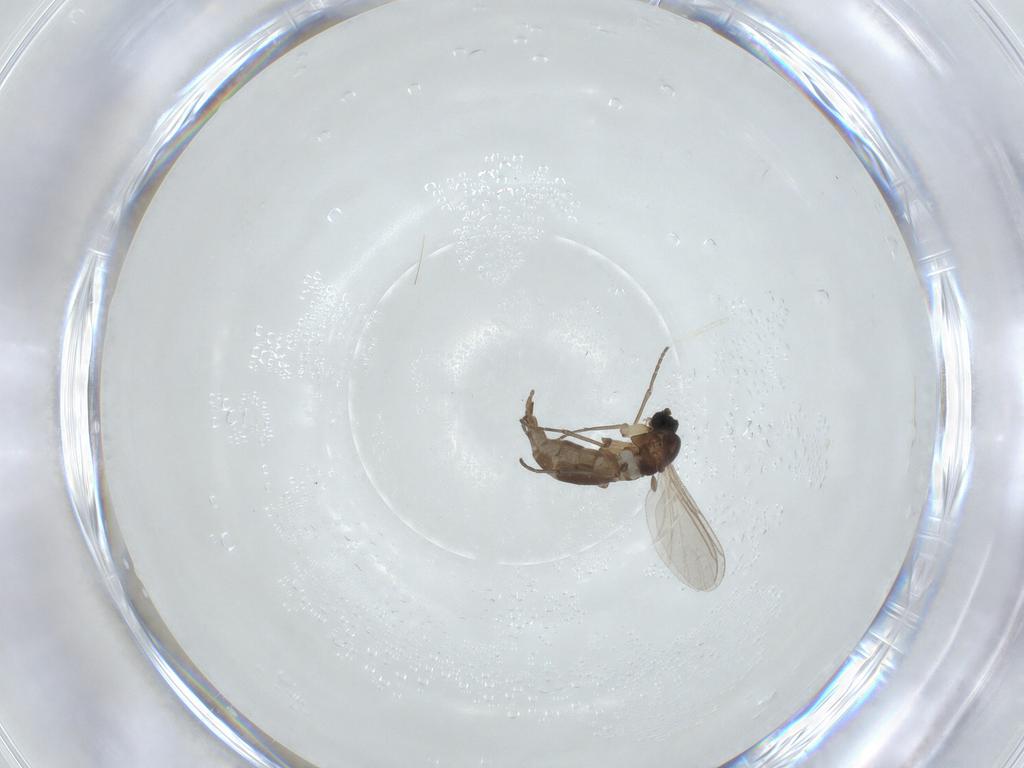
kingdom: Animalia
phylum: Arthropoda
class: Insecta
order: Diptera
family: Sciaridae
